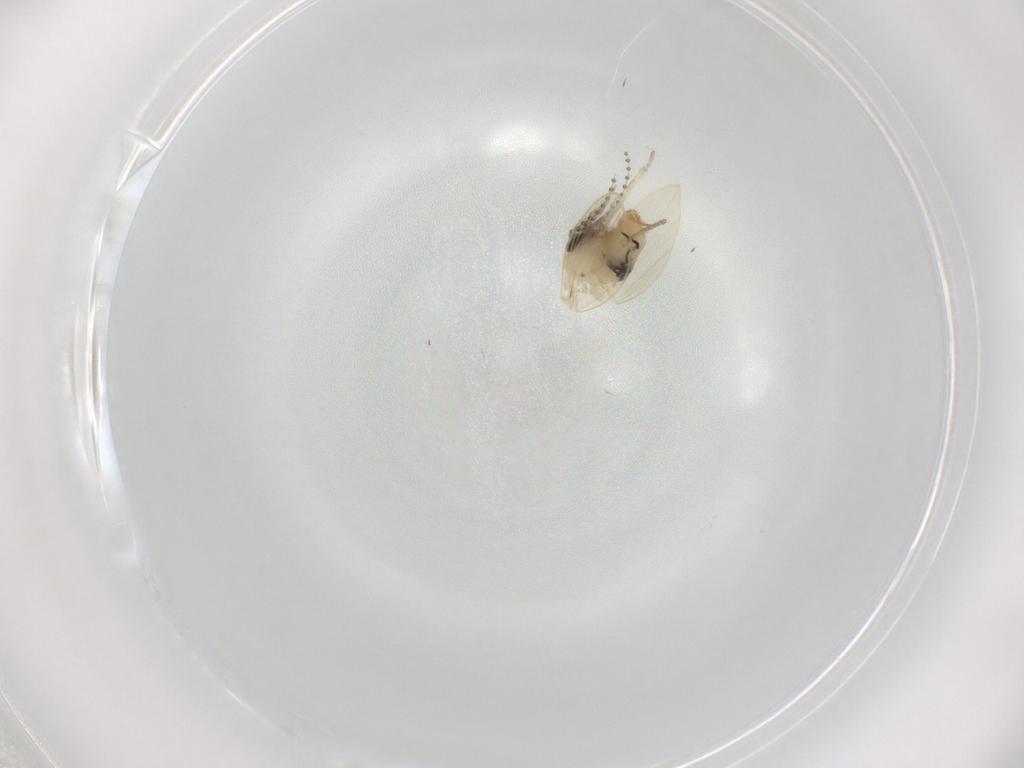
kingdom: Animalia
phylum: Arthropoda
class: Insecta
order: Diptera
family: Psychodidae
